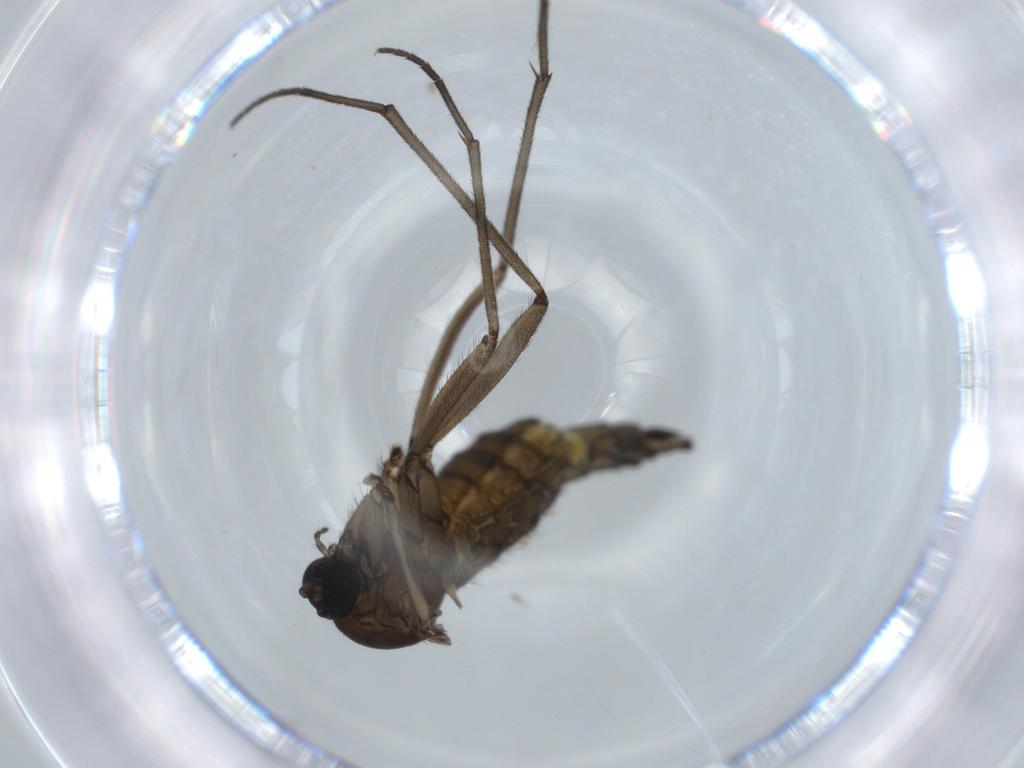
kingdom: Animalia
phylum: Arthropoda
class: Insecta
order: Diptera
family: Sciaridae
